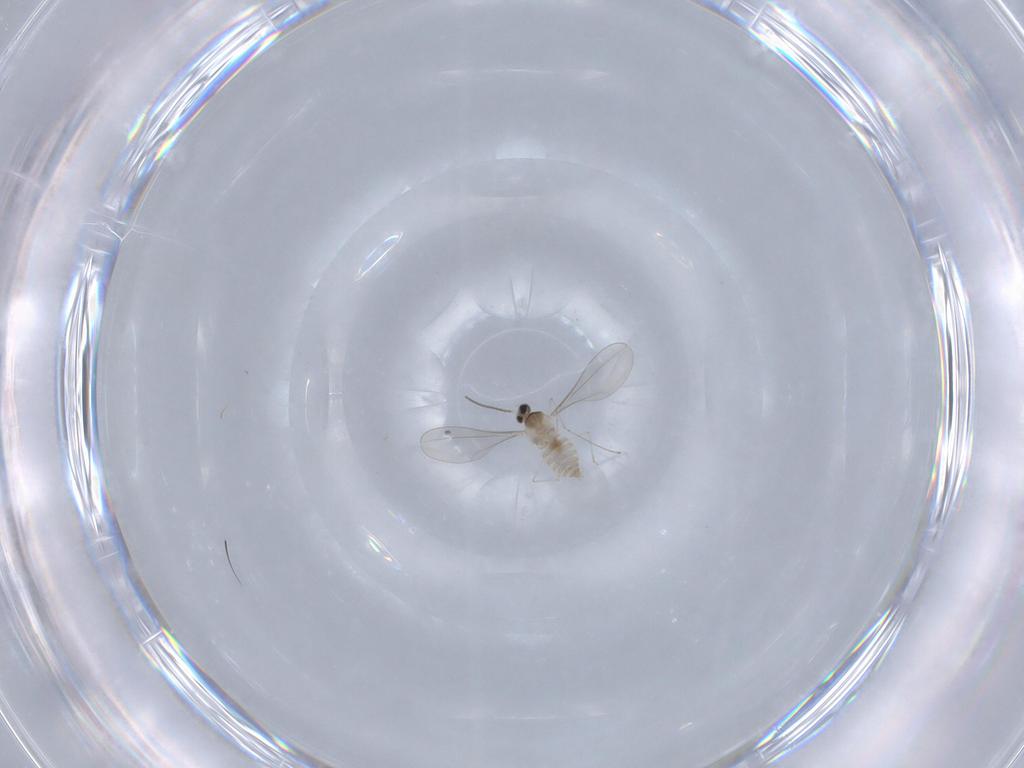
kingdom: Animalia
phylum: Arthropoda
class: Insecta
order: Diptera
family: Cecidomyiidae
